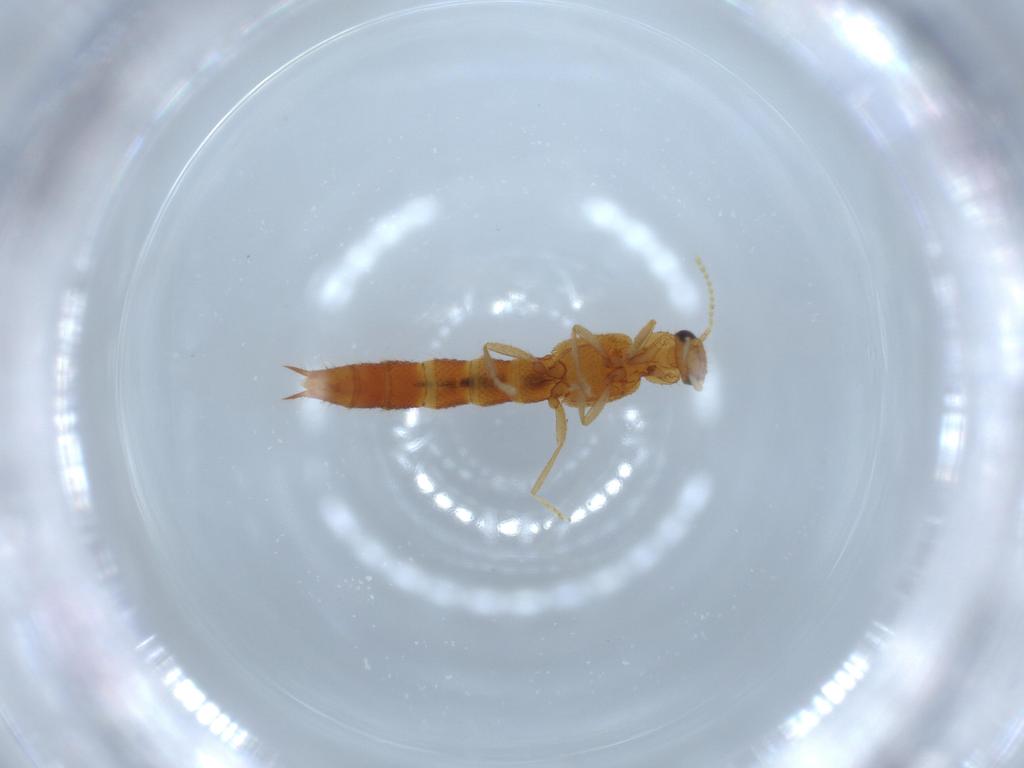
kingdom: Animalia
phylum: Arthropoda
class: Insecta
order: Coleoptera
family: Staphylinidae
